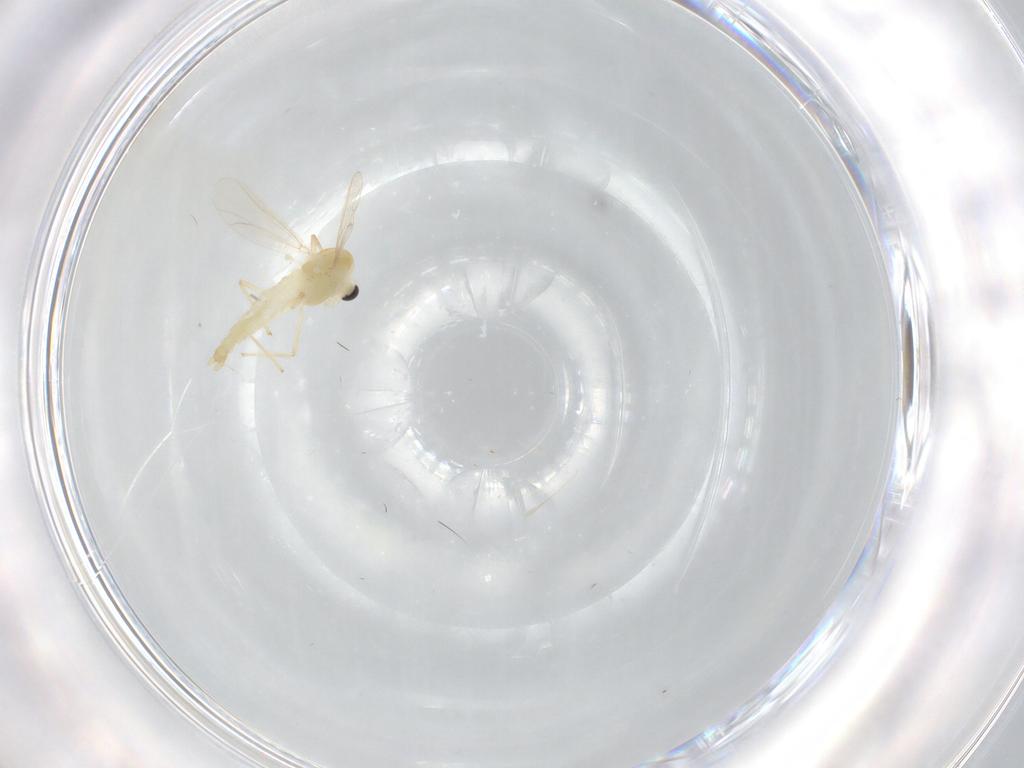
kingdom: Animalia
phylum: Arthropoda
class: Insecta
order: Diptera
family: Chironomidae
